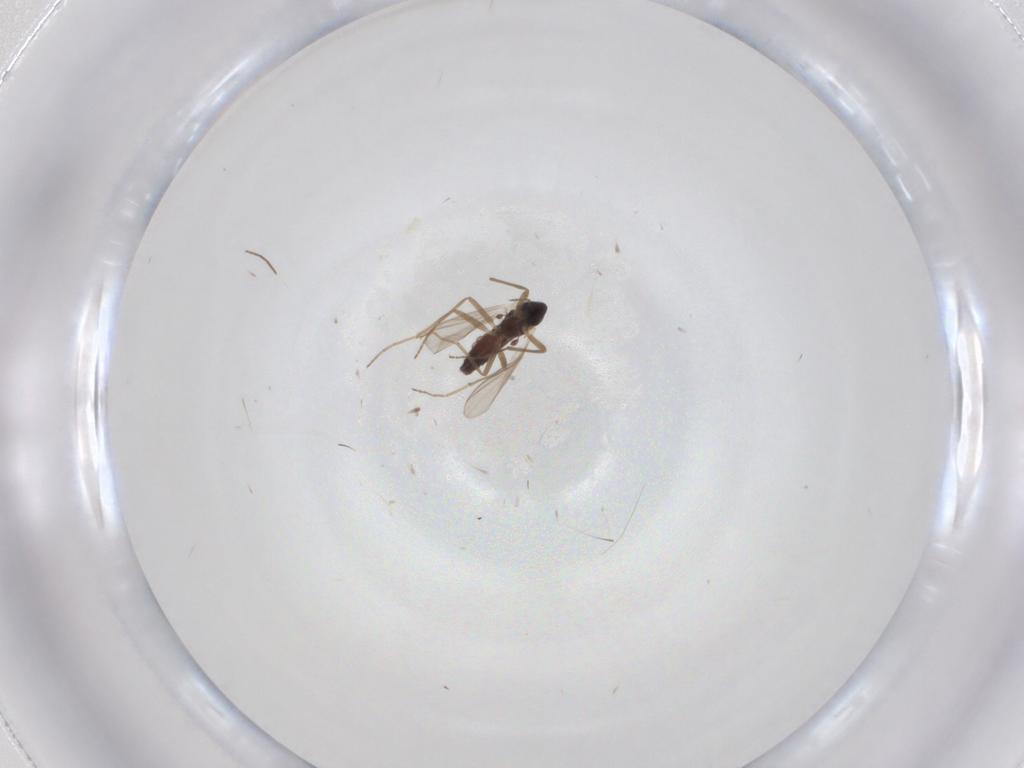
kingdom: Animalia
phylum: Arthropoda
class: Insecta
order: Diptera
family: Chironomidae
